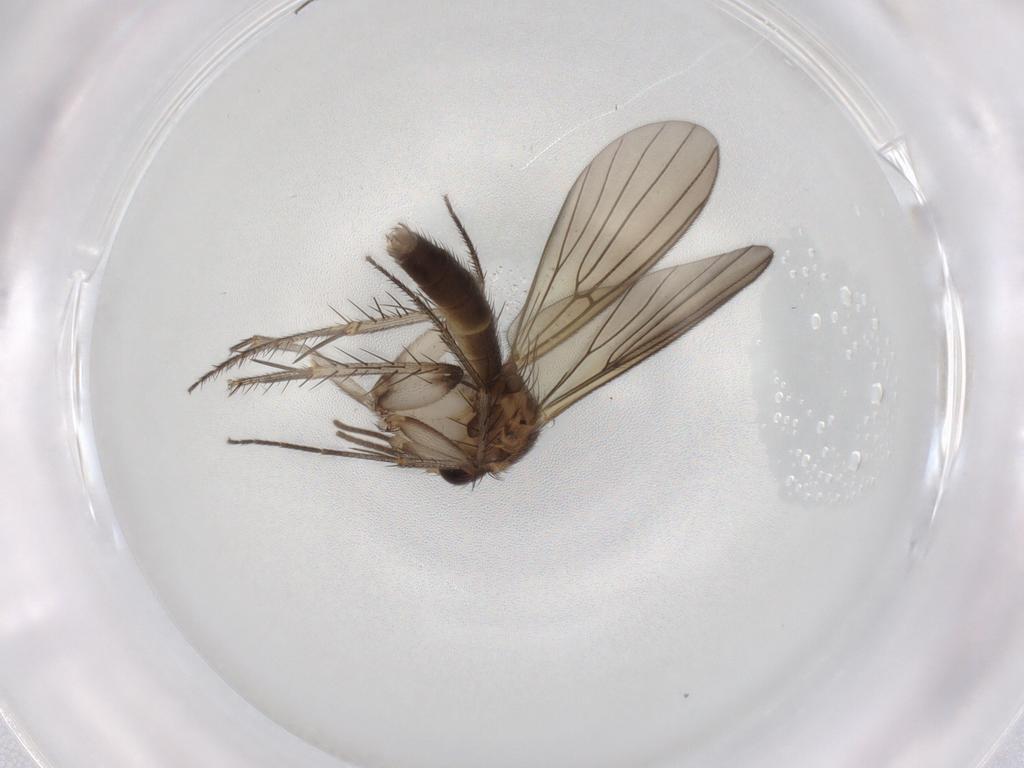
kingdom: Animalia
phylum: Arthropoda
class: Insecta
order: Diptera
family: Mycetophilidae
